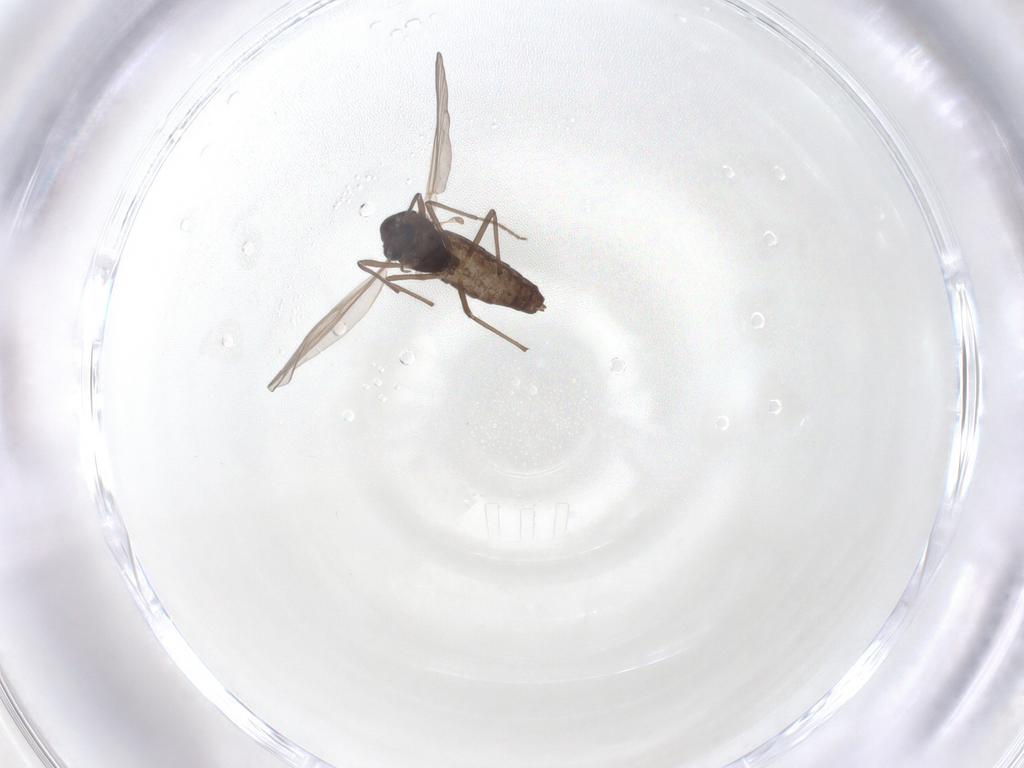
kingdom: Animalia
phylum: Arthropoda
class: Insecta
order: Diptera
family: Chironomidae
